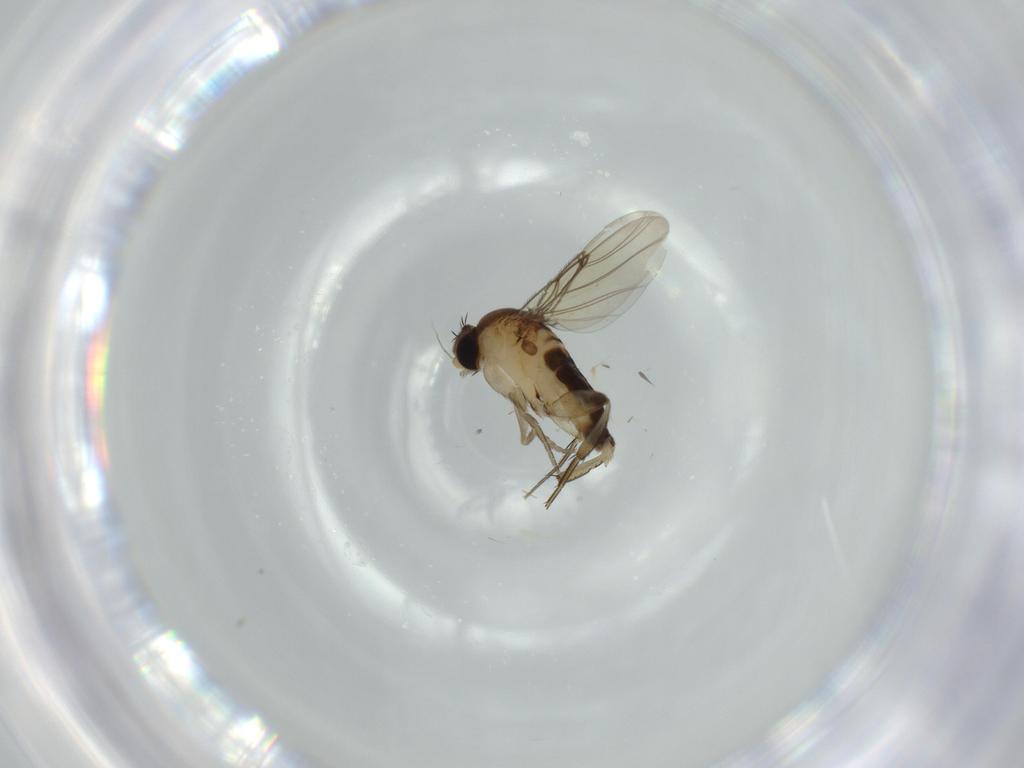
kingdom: Animalia
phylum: Arthropoda
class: Insecta
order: Diptera
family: Phoridae
